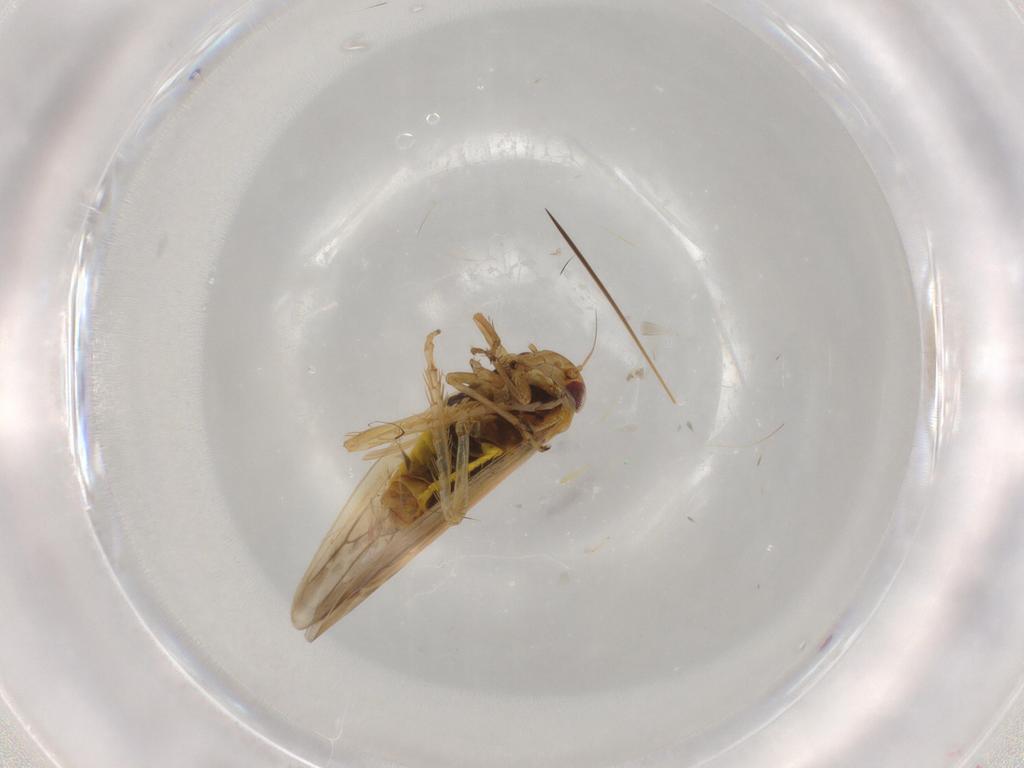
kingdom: Animalia
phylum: Arthropoda
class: Insecta
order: Hemiptera
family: Cicadellidae
